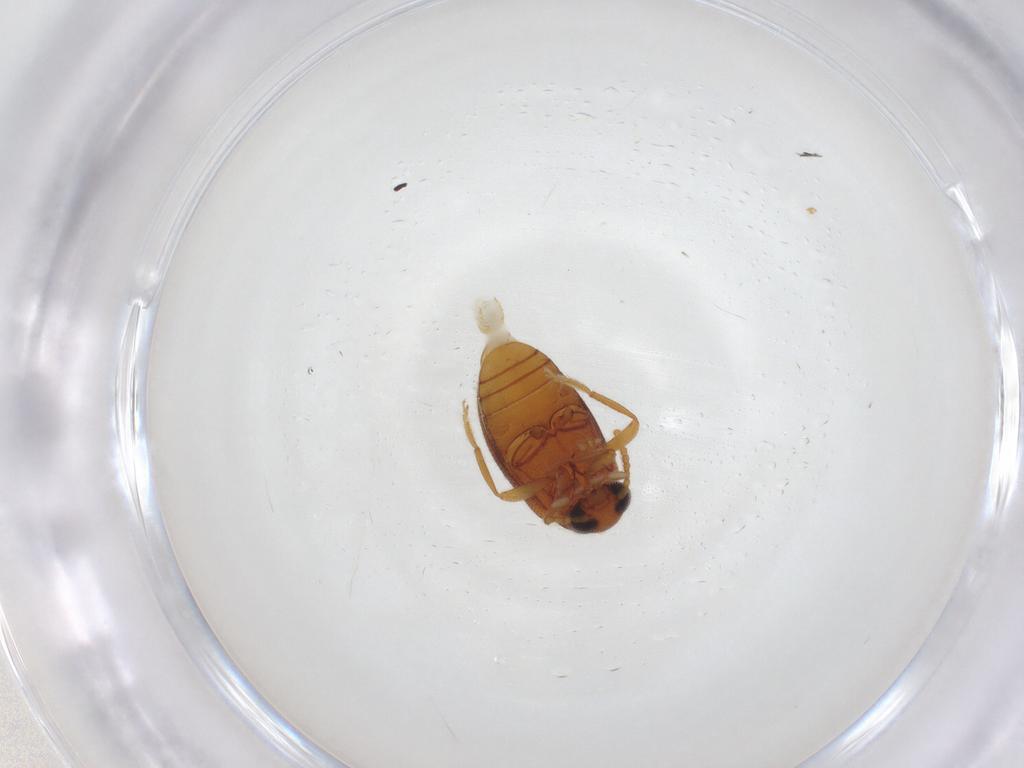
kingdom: Animalia
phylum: Arthropoda
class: Insecta
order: Coleoptera
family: Aderidae
